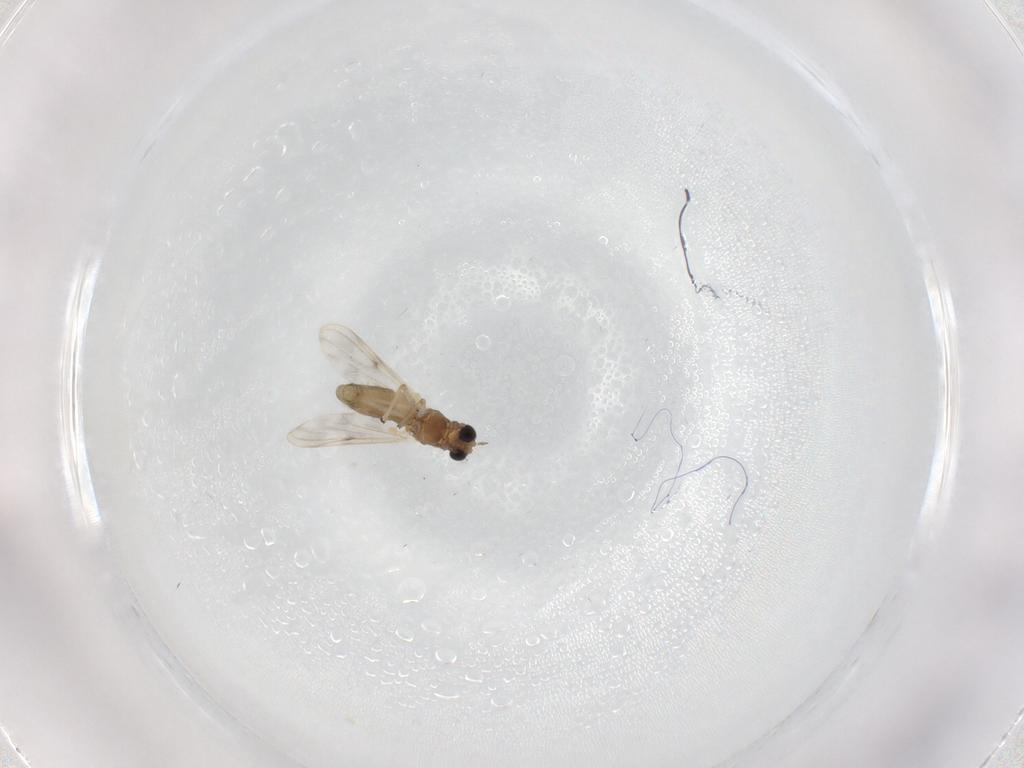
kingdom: Animalia
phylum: Arthropoda
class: Insecta
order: Diptera
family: Chironomidae
